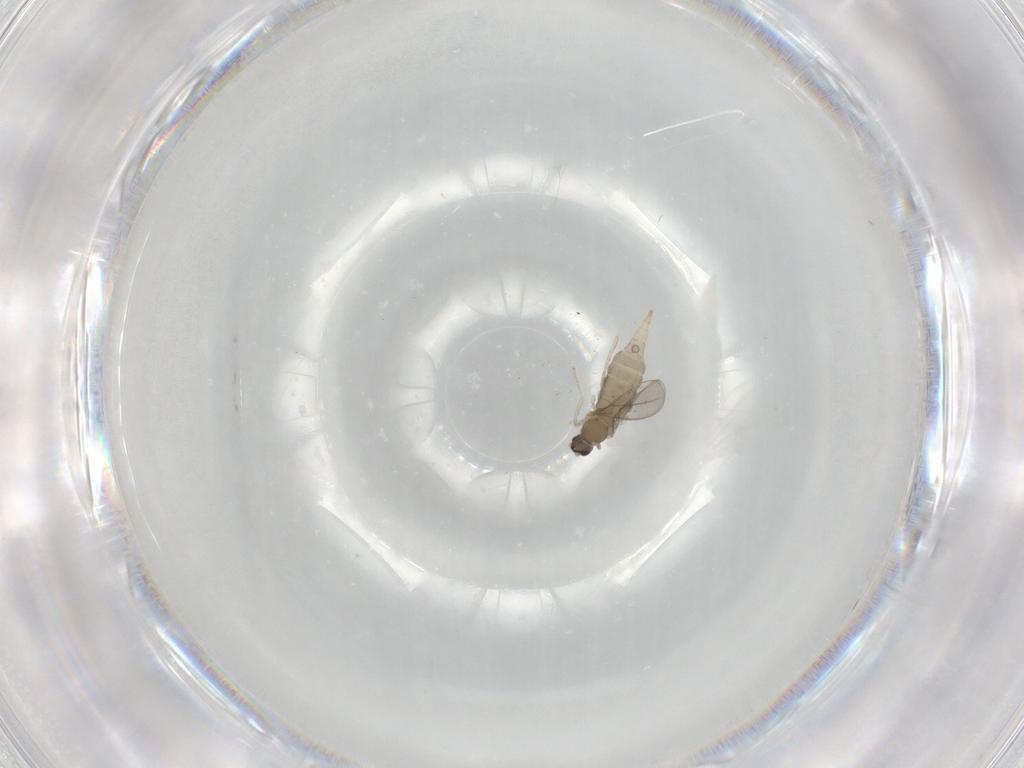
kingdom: Animalia
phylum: Arthropoda
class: Insecta
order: Diptera
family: Cecidomyiidae
